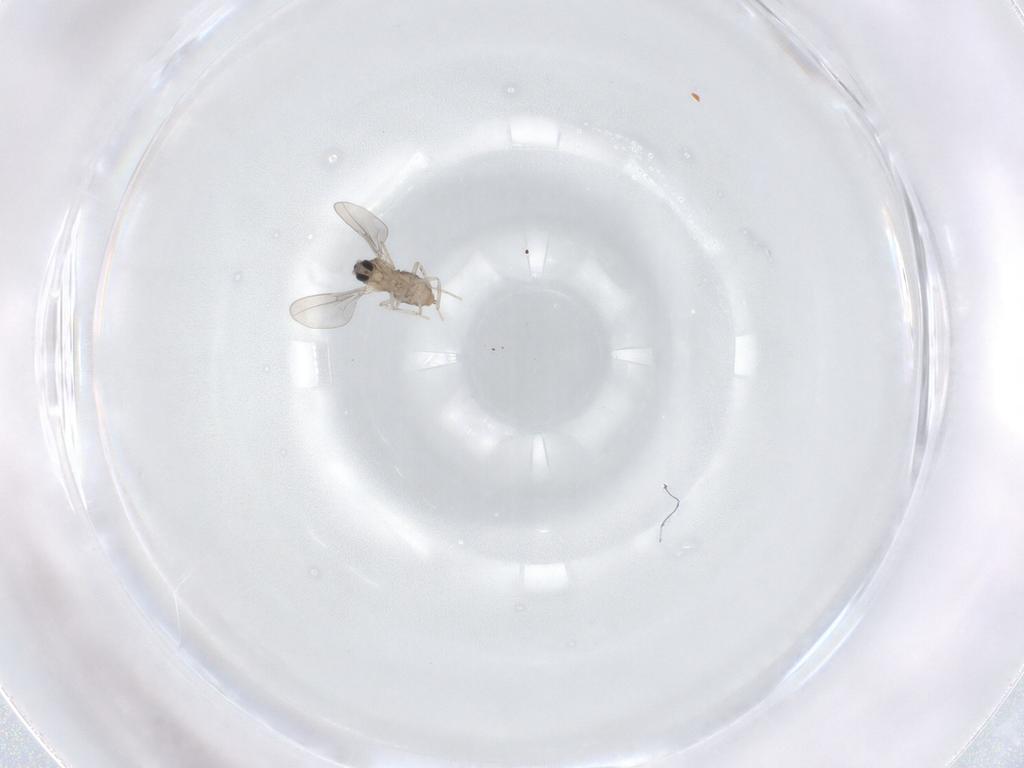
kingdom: Animalia
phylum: Arthropoda
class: Insecta
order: Diptera
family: Cecidomyiidae
